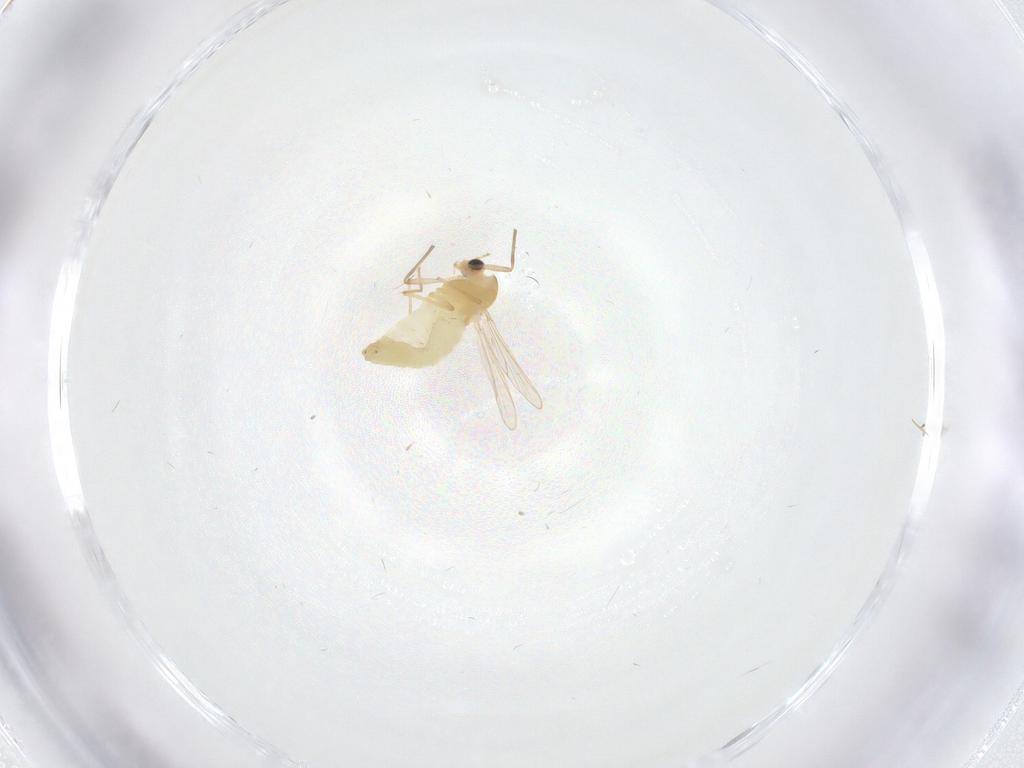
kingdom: Animalia
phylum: Arthropoda
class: Insecta
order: Diptera
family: Chironomidae
